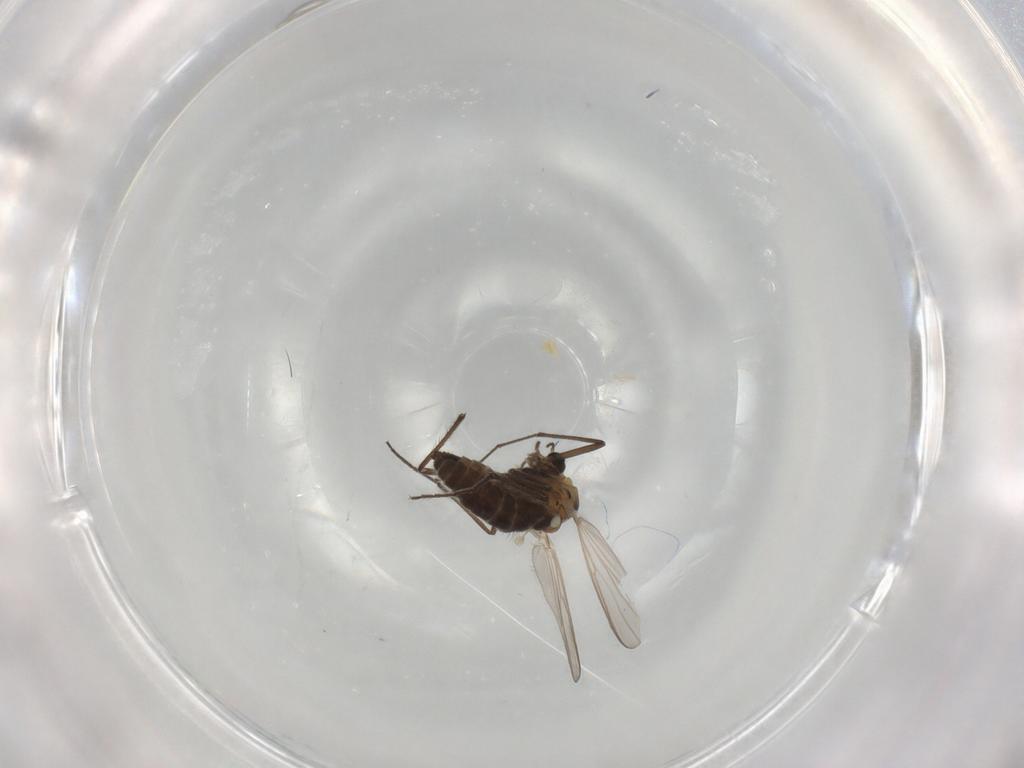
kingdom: Animalia
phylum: Arthropoda
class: Insecta
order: Diptera
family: Chironomidae
